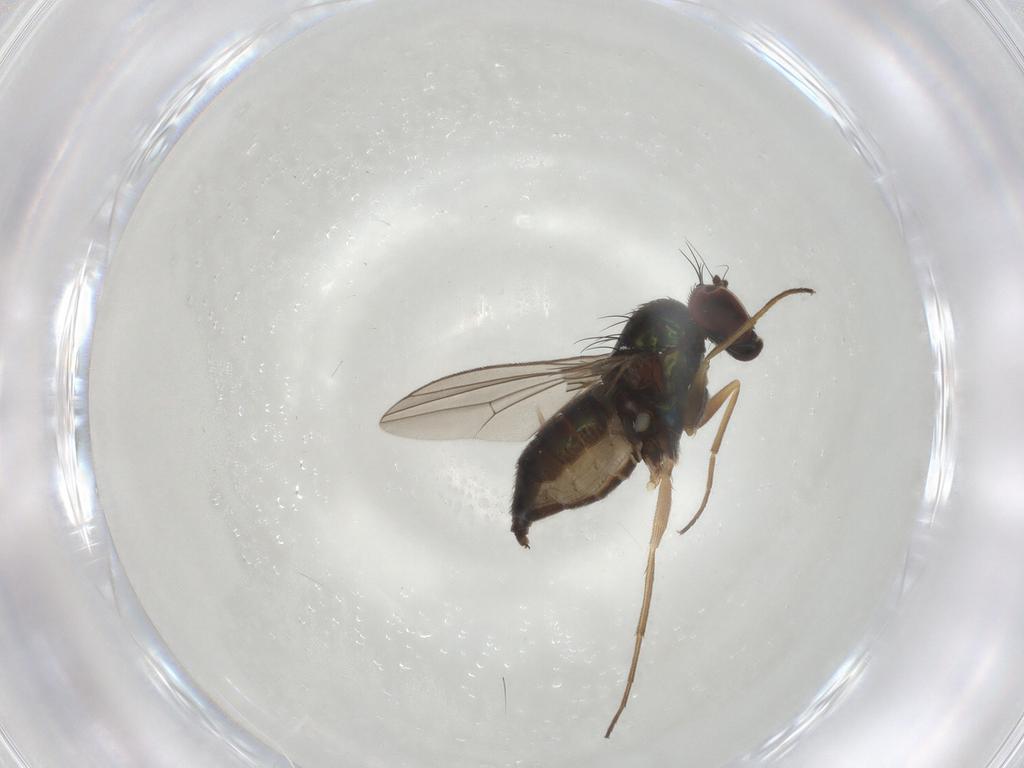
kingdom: Animalia
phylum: Arthropoda
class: Insecta
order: Diptera
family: Dolichopodidae
